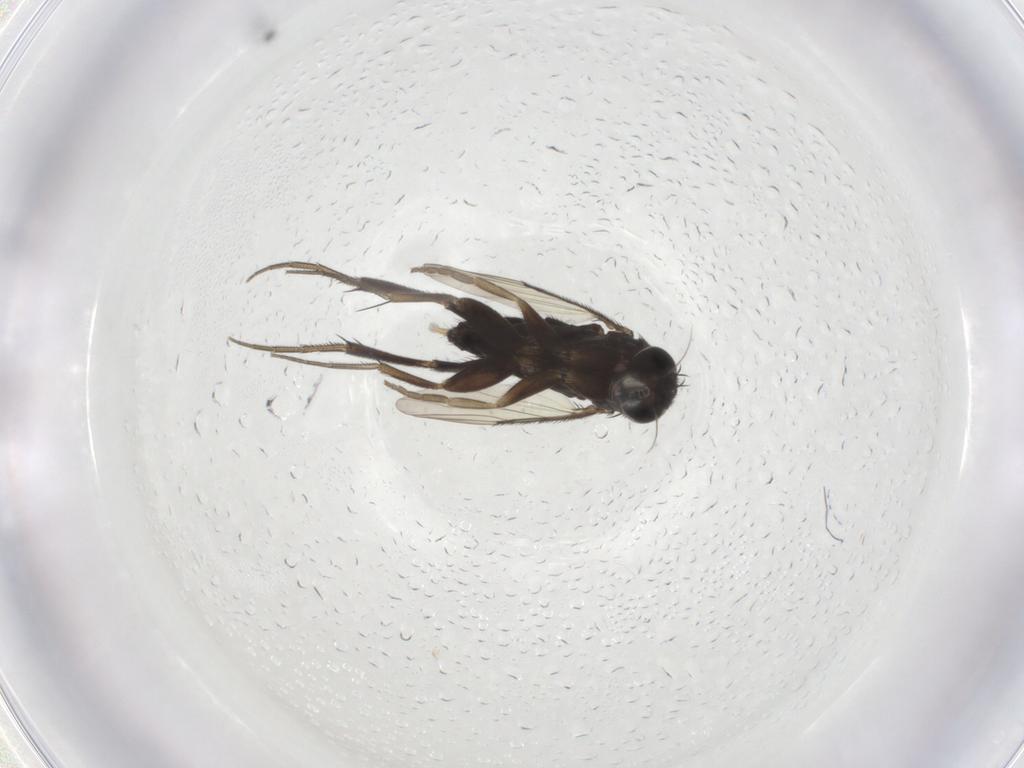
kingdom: Animalia
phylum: Arthropoda
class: Insecta
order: Diptera
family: Phoridae
